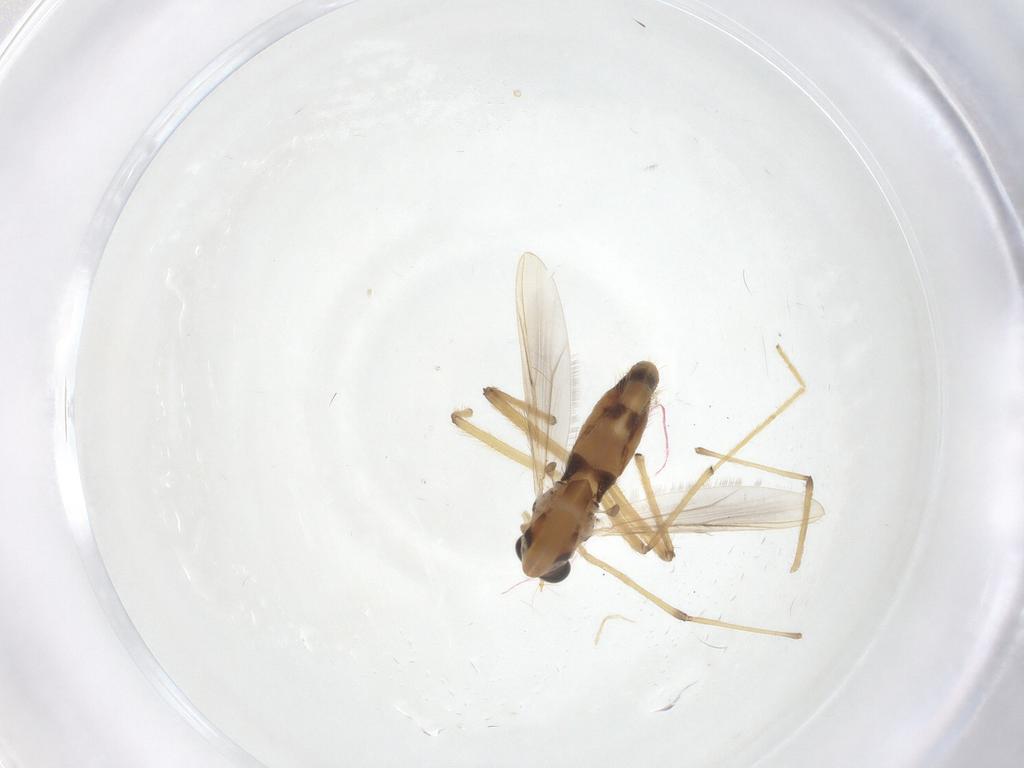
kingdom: Animalia
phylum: Arthropoda
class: Insecta
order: Diptera
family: Chironomidae
